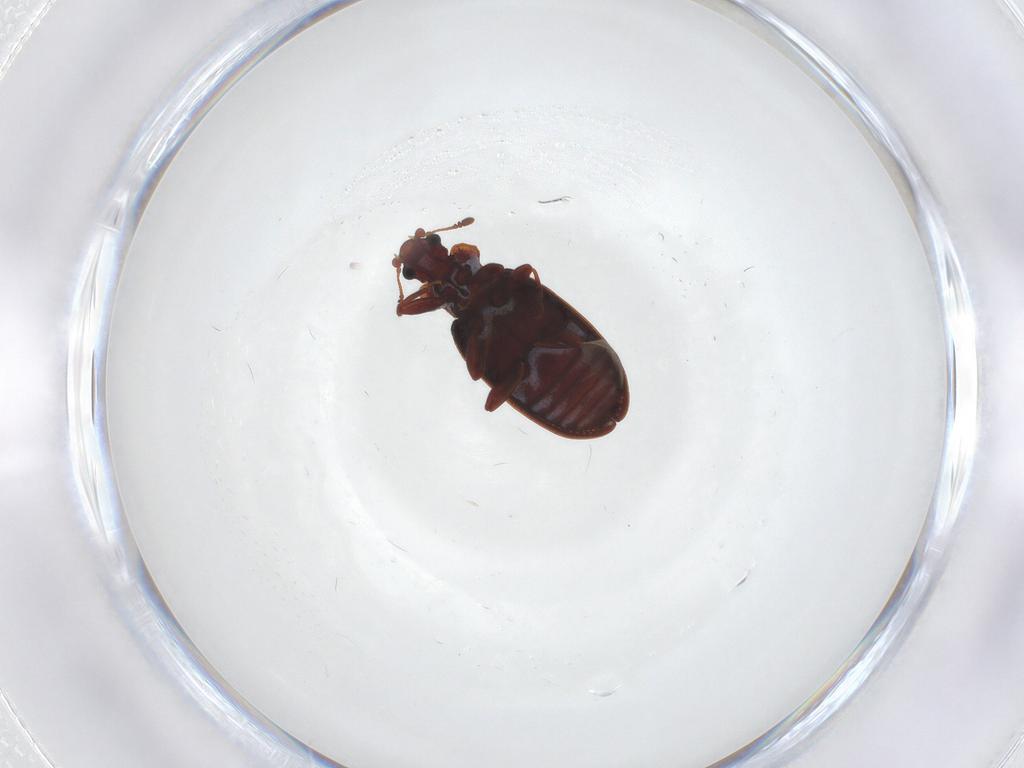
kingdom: Animalia
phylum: Arthropoda
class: Insecta
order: Coleoptera
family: Latridiidae
